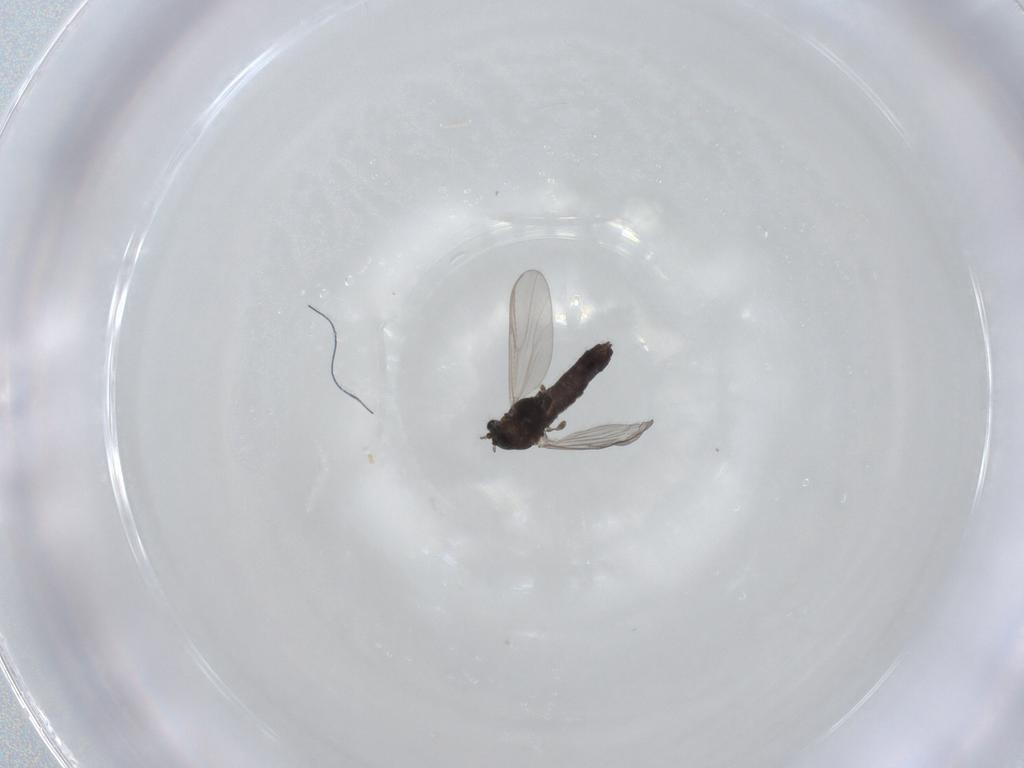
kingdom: Animalia
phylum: Arthropoda
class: Insecta
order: Diptera
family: Chironomidae
